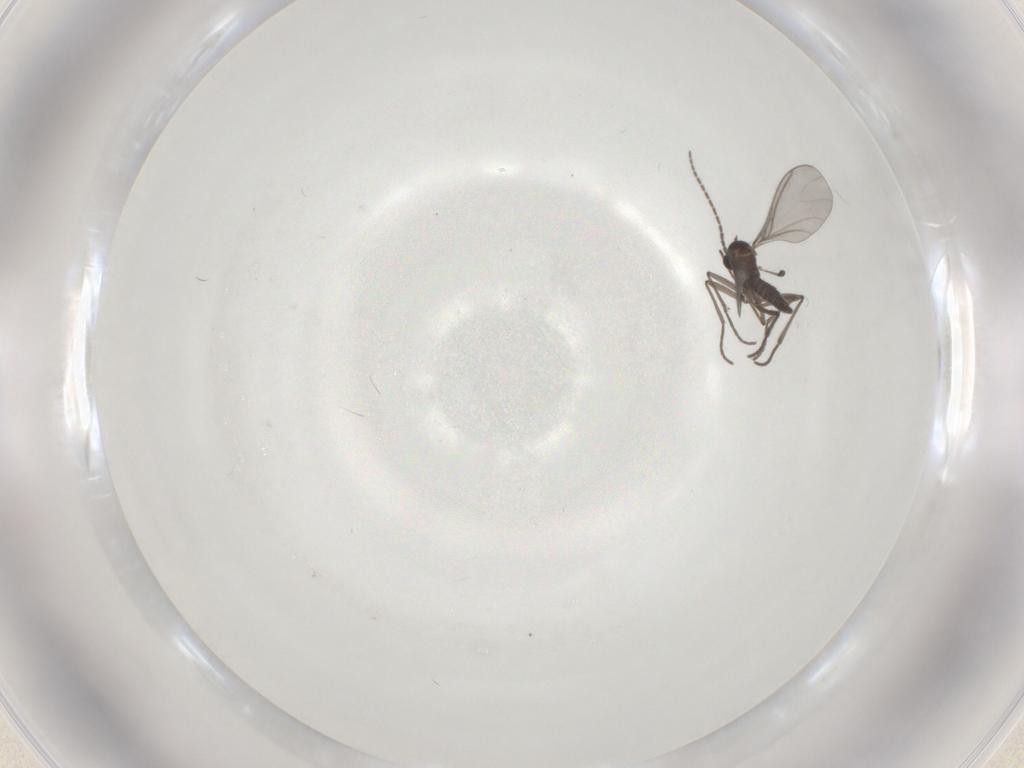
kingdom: Animalia
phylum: Arthropoda
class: Insecta
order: Diptera
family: Sciaridae
